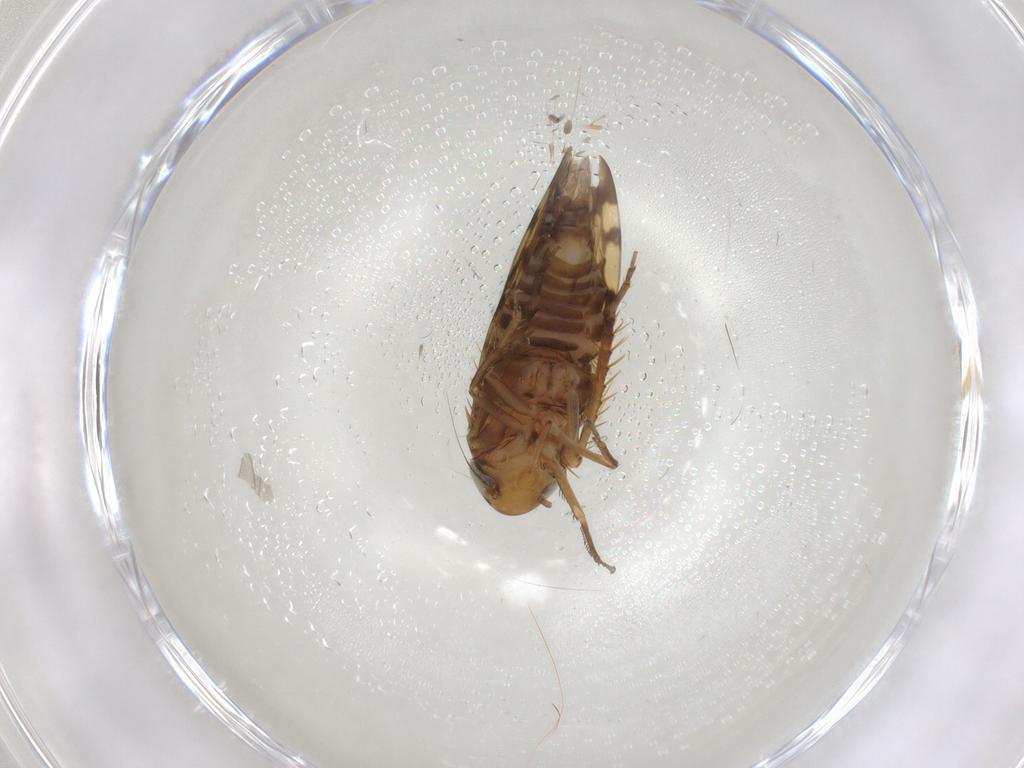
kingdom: Animalia
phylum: Arthropoda
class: Insecta
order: Hemiptera
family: Cicadellidae
